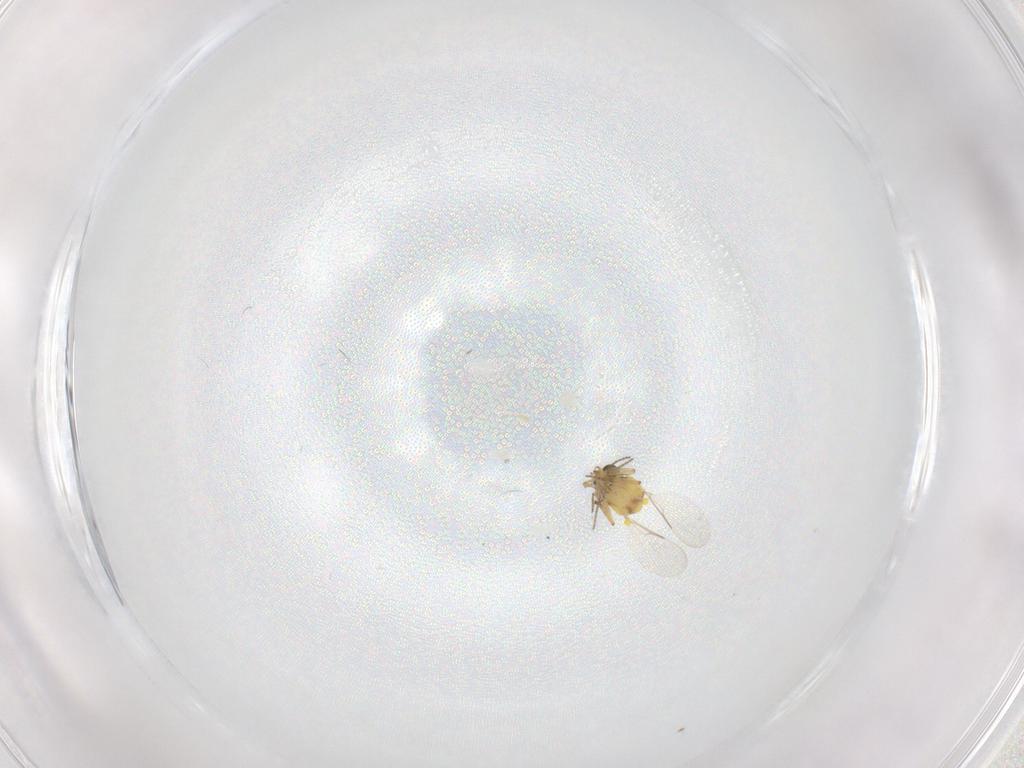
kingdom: Animalia
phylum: Arthropoda
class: Insecta
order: Diptera
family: Ceratopogonidae
